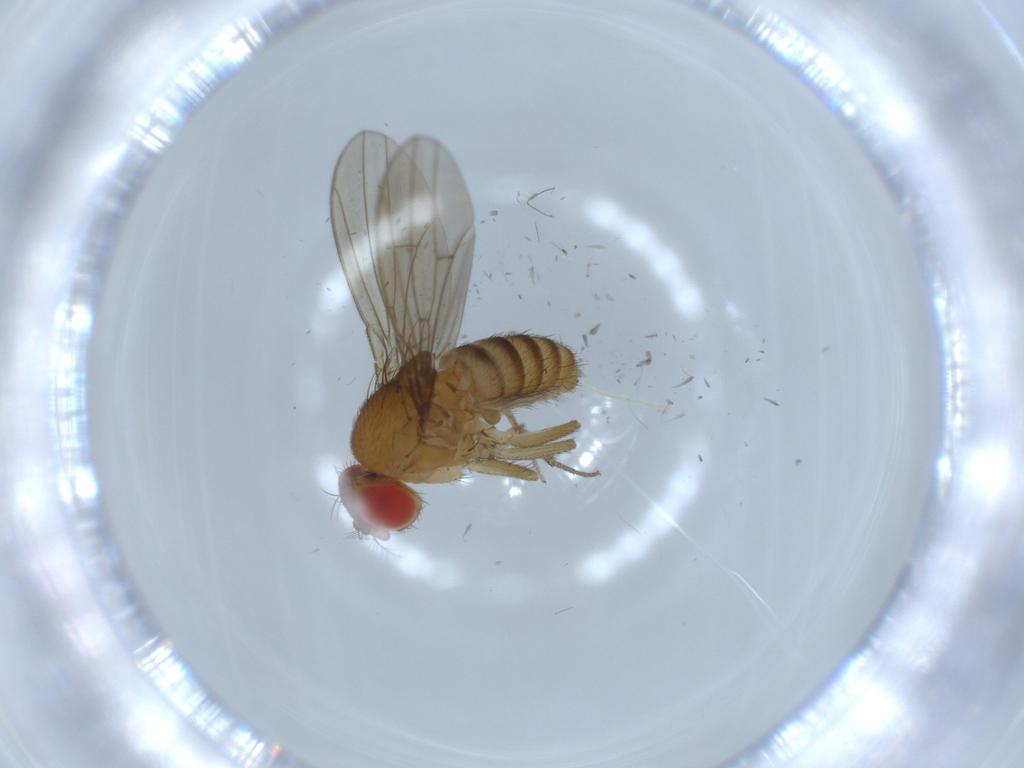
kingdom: Animalia
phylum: Arthropoda
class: Insecta
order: Diptera
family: Drosophilidae
